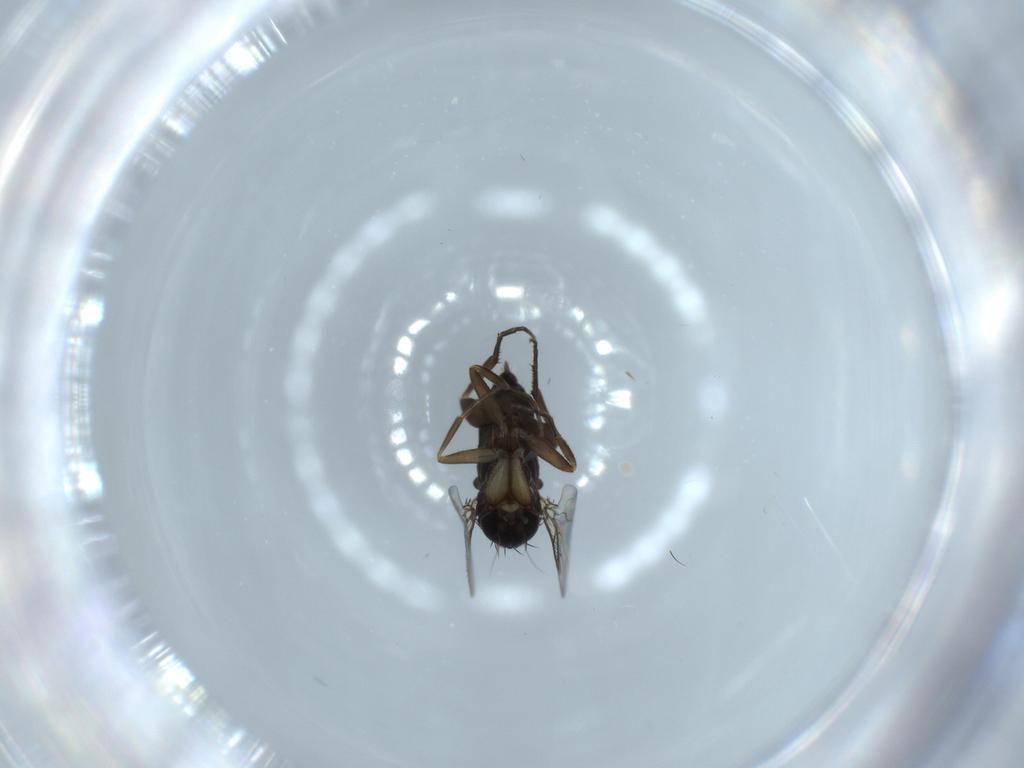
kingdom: Animalia
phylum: Arthropoda
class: Insecta
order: Diptera
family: Phoridae
